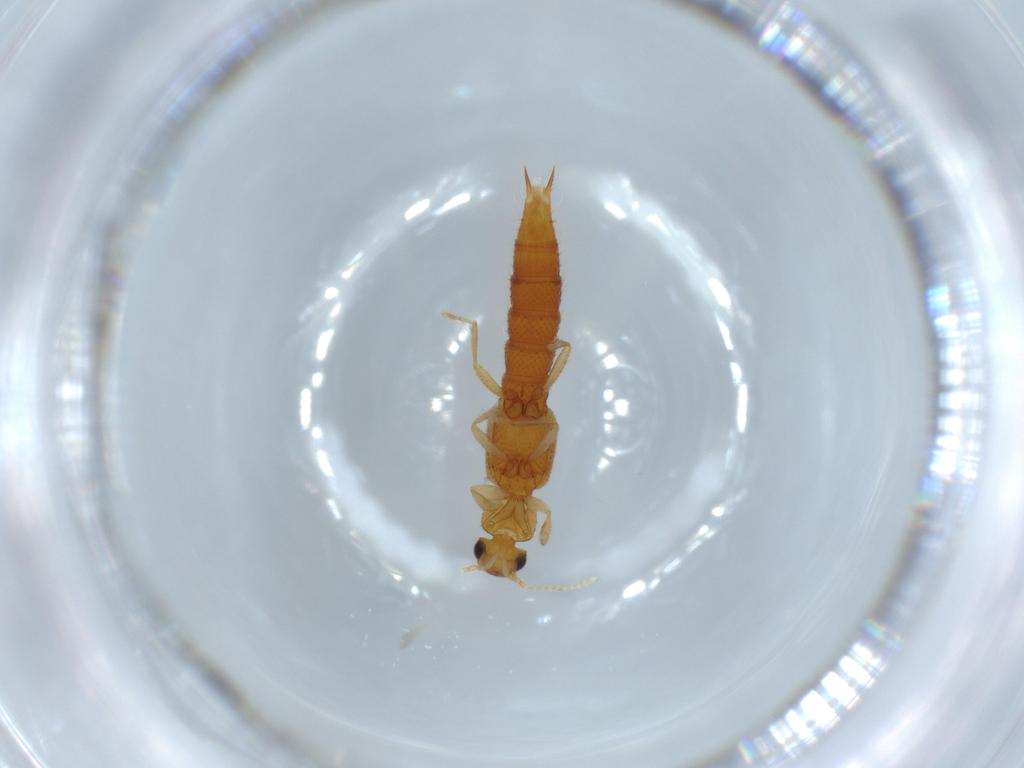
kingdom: Animalia
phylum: Arthropoda
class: Insecta
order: Coleoptera
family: Staphylinidae
